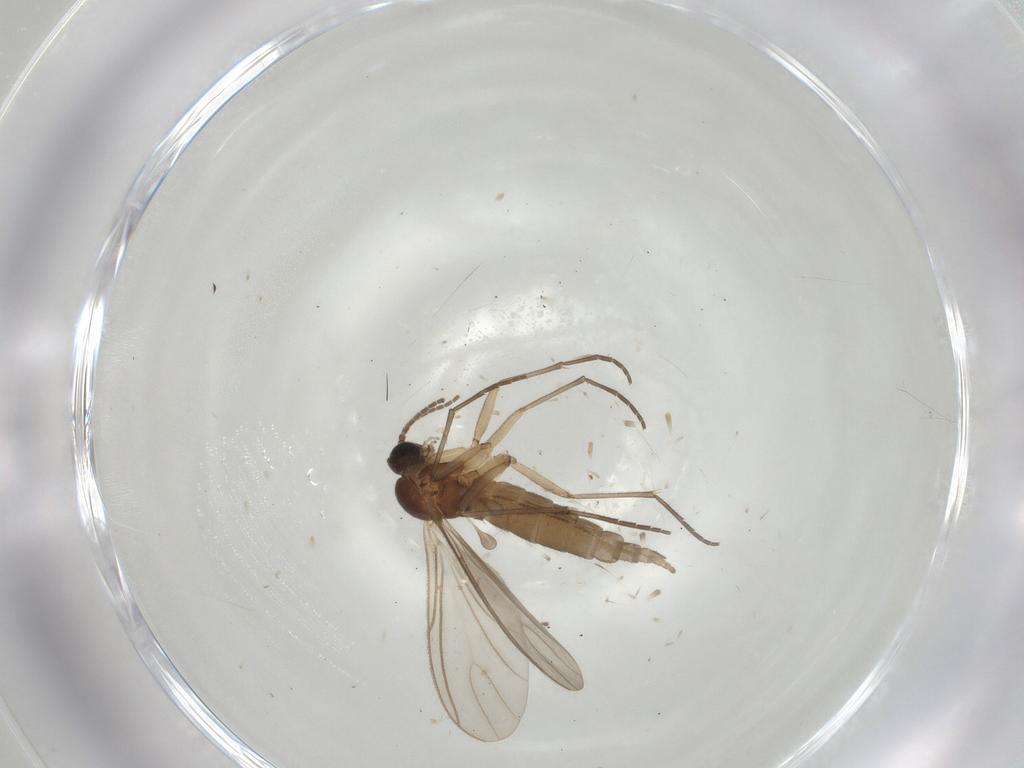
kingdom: Animalia
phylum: Arthropoda
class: Insecta
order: Diptera
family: Sciaridae
